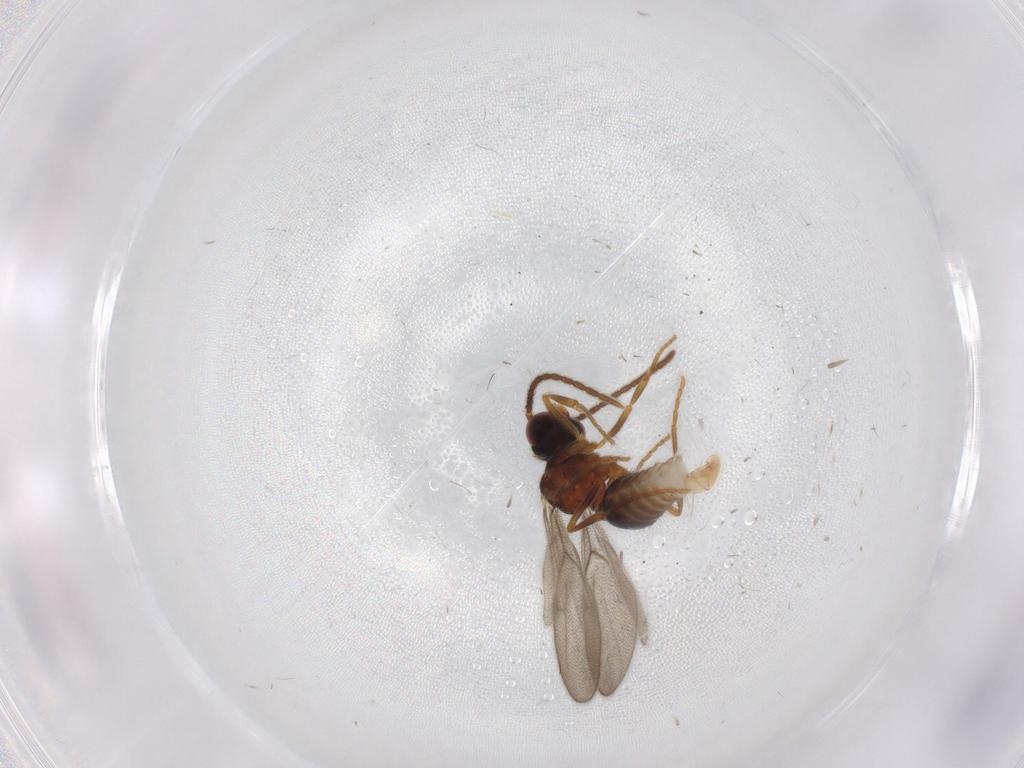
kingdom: Animalia
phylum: Arthropoda
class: Insecta
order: Hymenoptera
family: Formicidae
